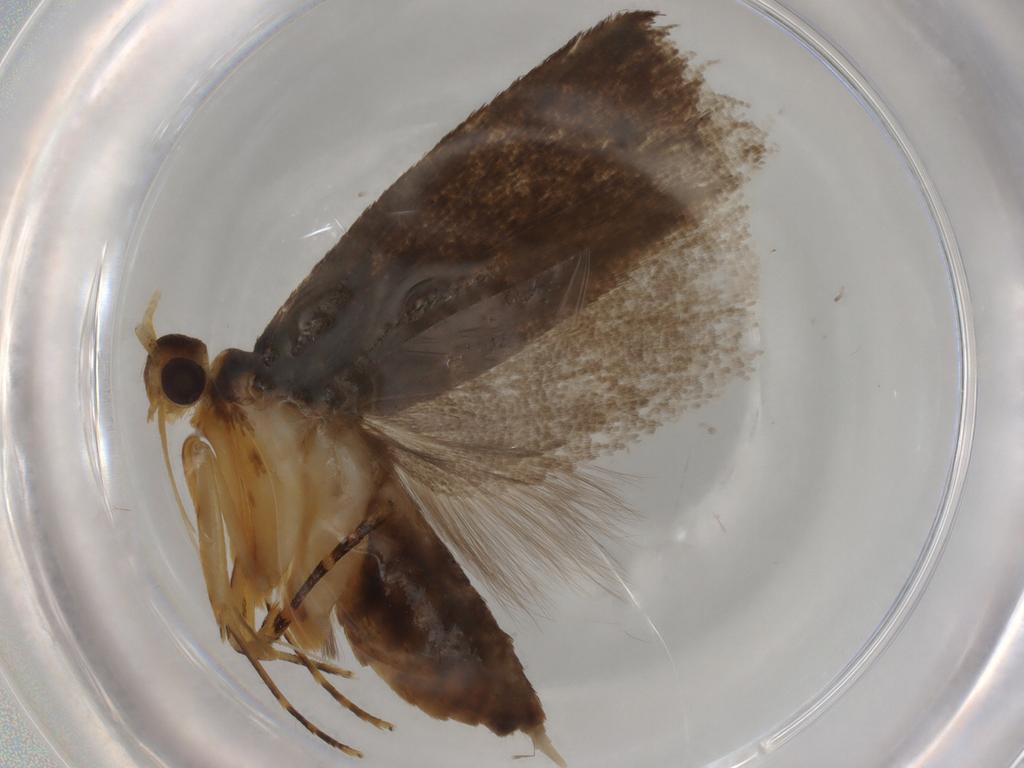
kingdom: Animalia
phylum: Arthropoda
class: Insecta
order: Lepidoptera
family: Lecithoceridae
